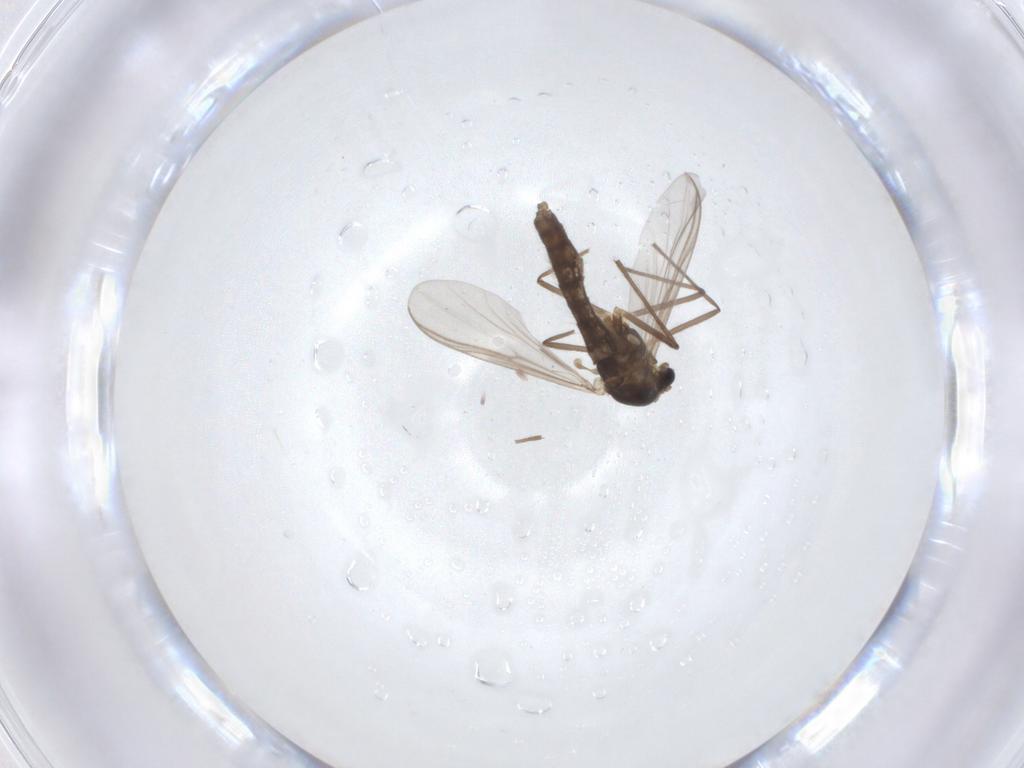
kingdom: Animalia
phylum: Arthropoda
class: Insecta
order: Diptera
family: Chironomidae
